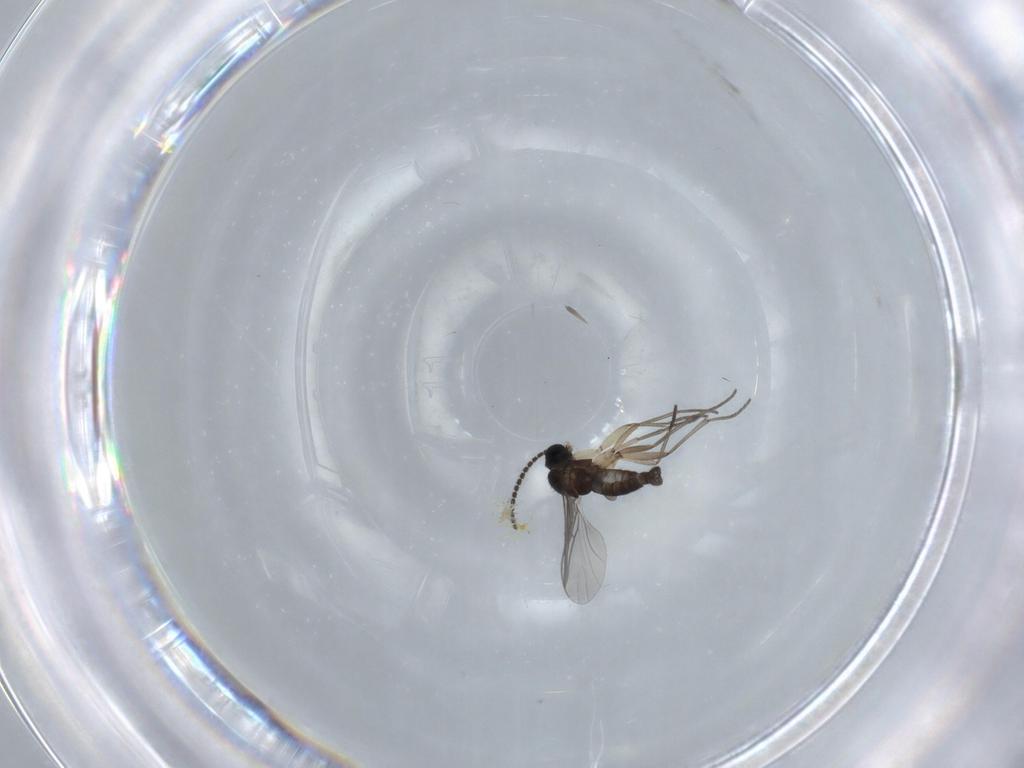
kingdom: Animalia
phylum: Arthropoda
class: Insecta
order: Diptera
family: Sciaridae
